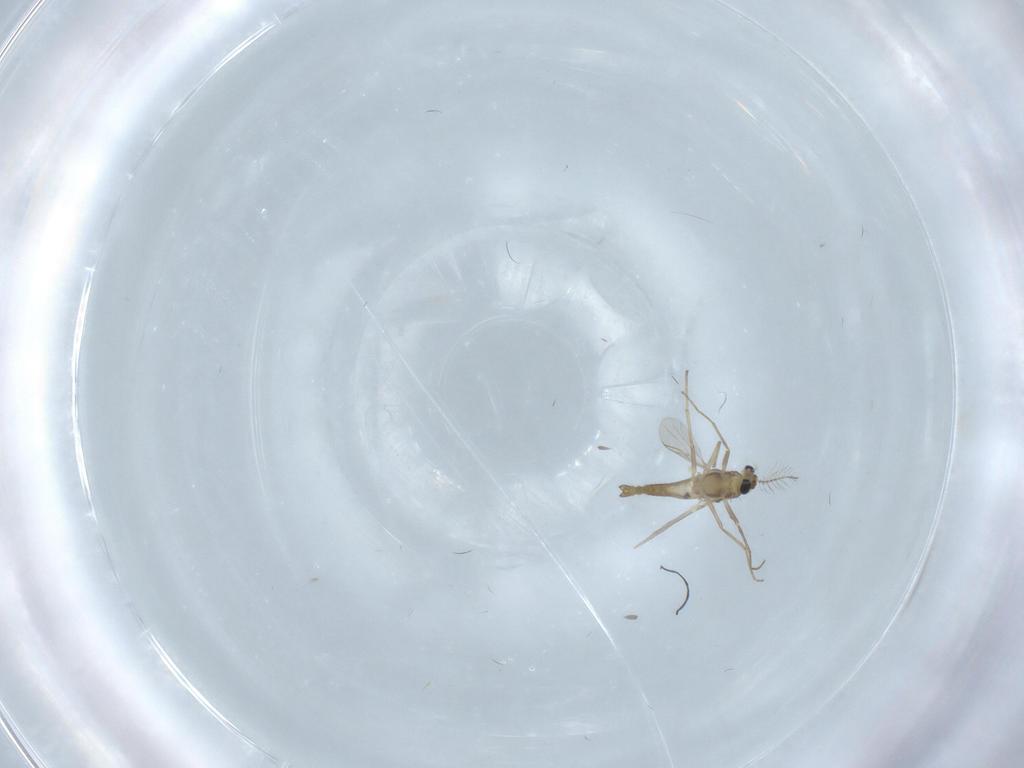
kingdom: Animalia
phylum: Arthropoda
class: Insecta
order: Diptera
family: Chironomidae
